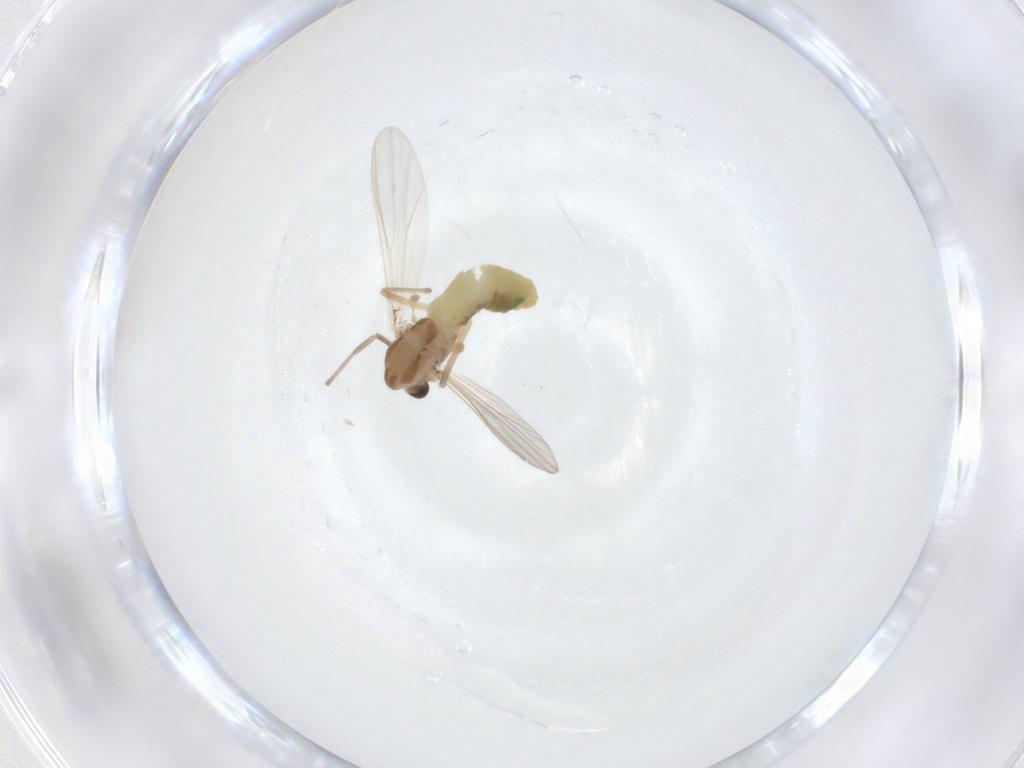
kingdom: Animalia
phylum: Arthropoda
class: Insecta
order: Diptera
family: Chironomidae
